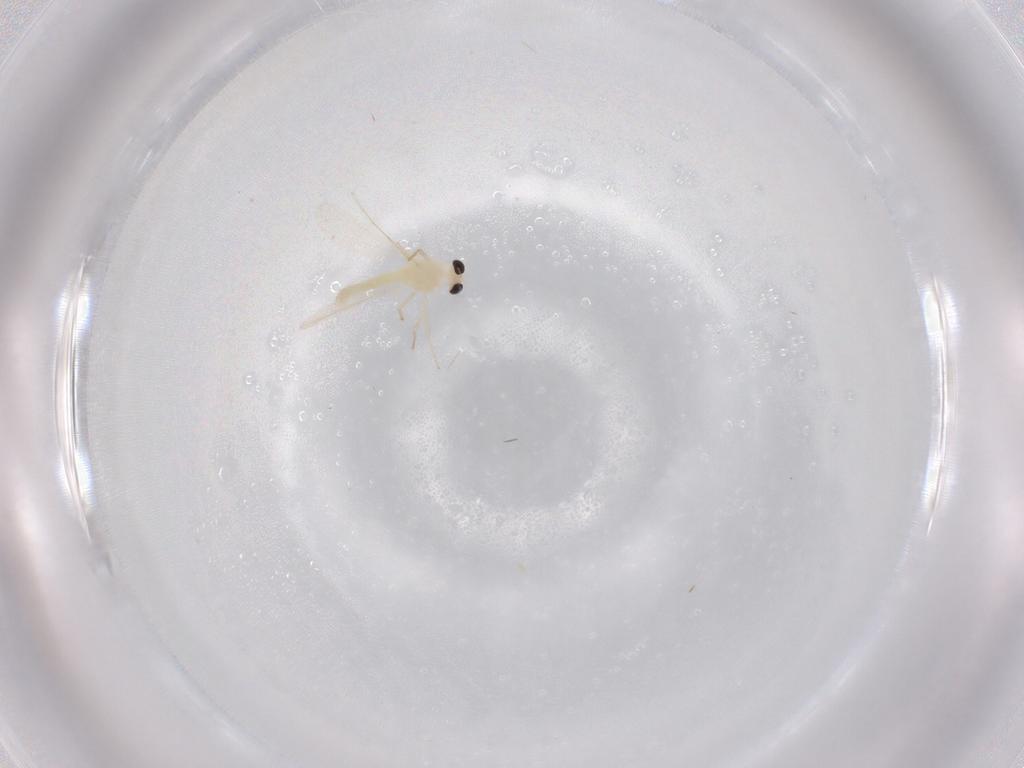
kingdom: Animalia
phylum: Arthropoda
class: Insecta
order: Diptera
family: Chironomidae
